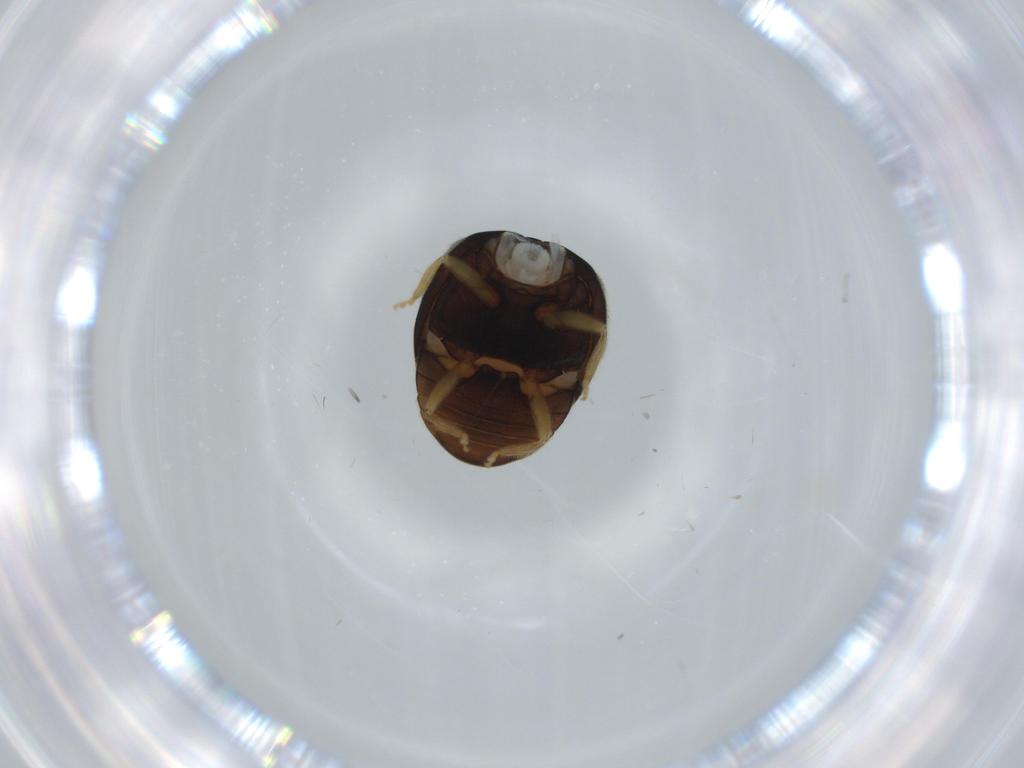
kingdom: Animalia
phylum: Arthropoda
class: Insecta
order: Coleoptera
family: Coccinellidae
